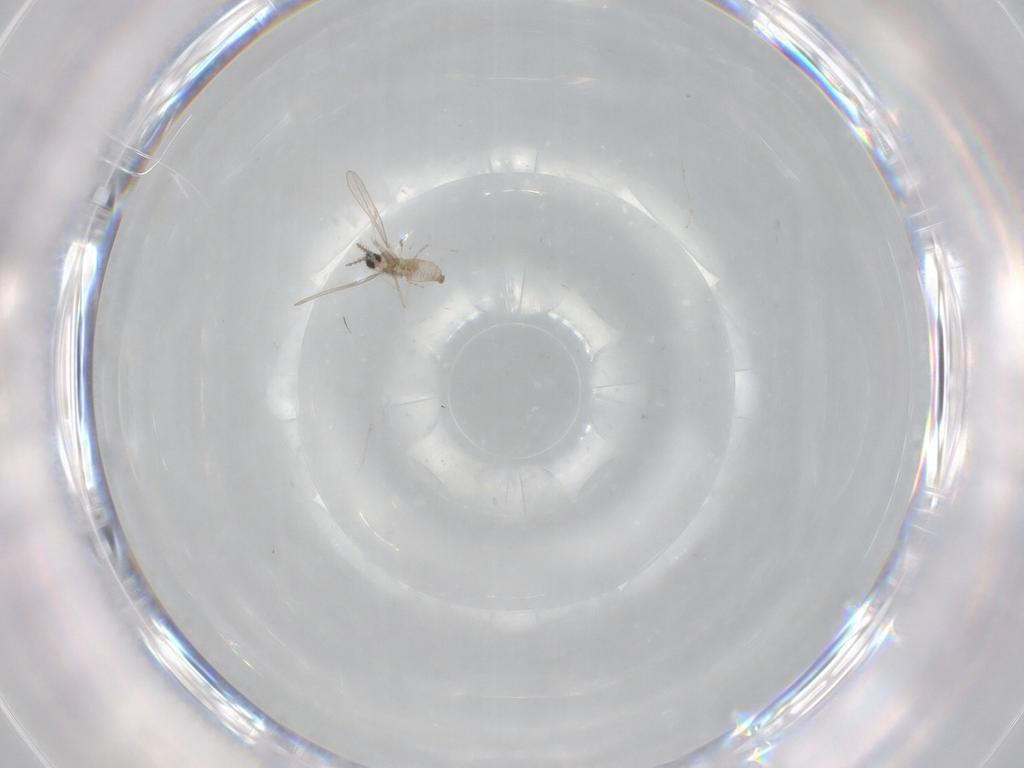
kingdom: Animalia
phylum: Arthropoda
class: Insecta
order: Diptera
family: Cecidomyiidae
